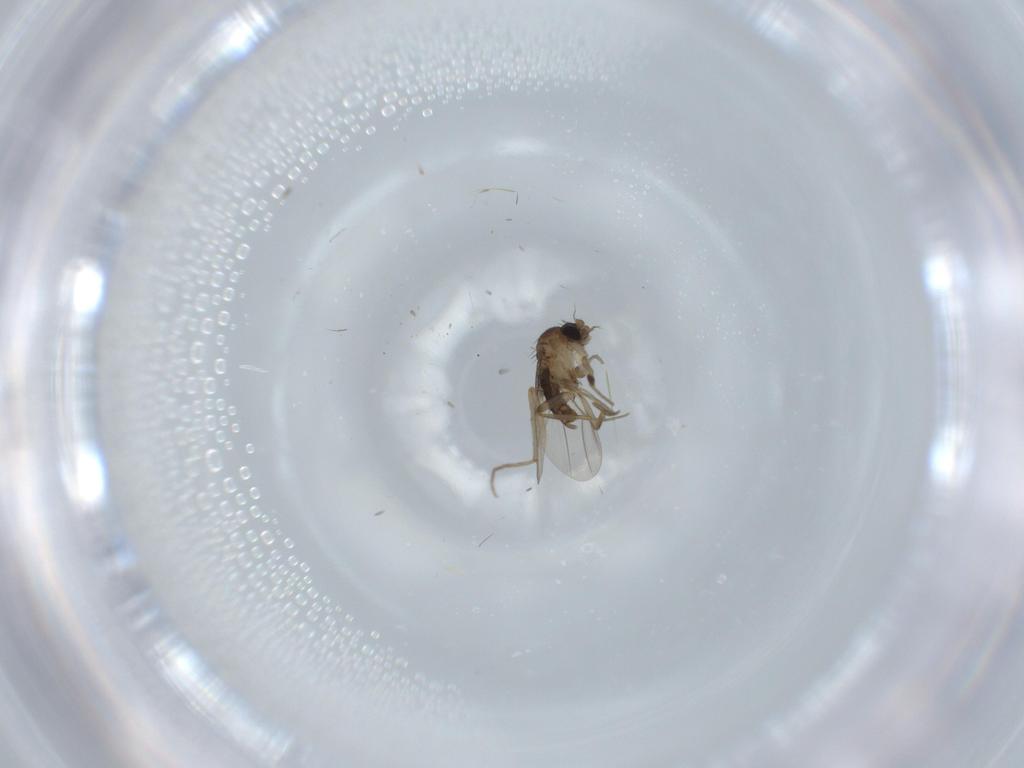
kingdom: Animalia
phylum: Arthropoda
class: Insecta
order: Diptera
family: Phoridae
